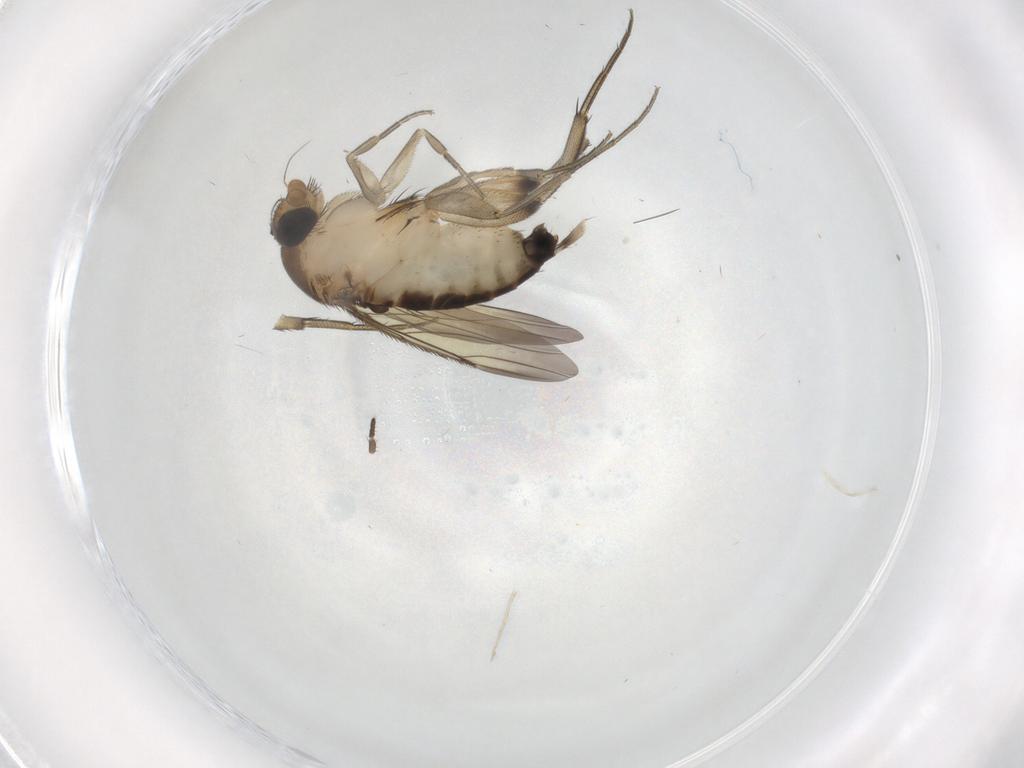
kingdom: Animalia
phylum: Arthropoda
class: Insecta
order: Diptera
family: Phoridae
